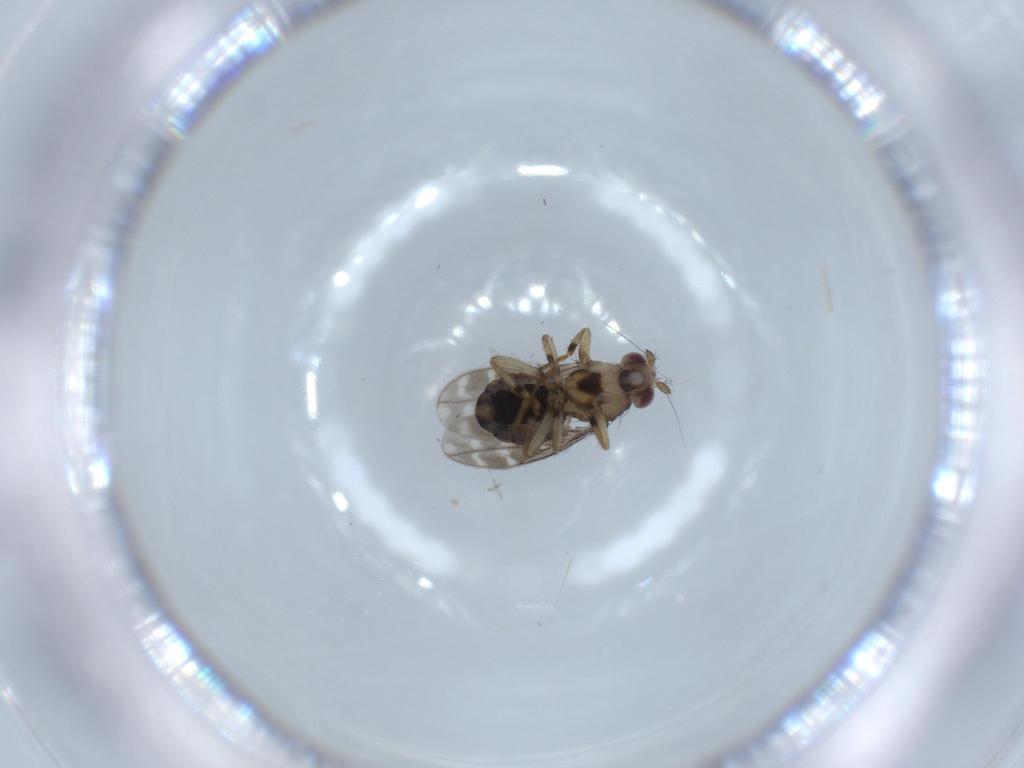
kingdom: Animalia
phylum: Arthropoda
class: Insecta
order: Diptera
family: Sphaeroceridae
